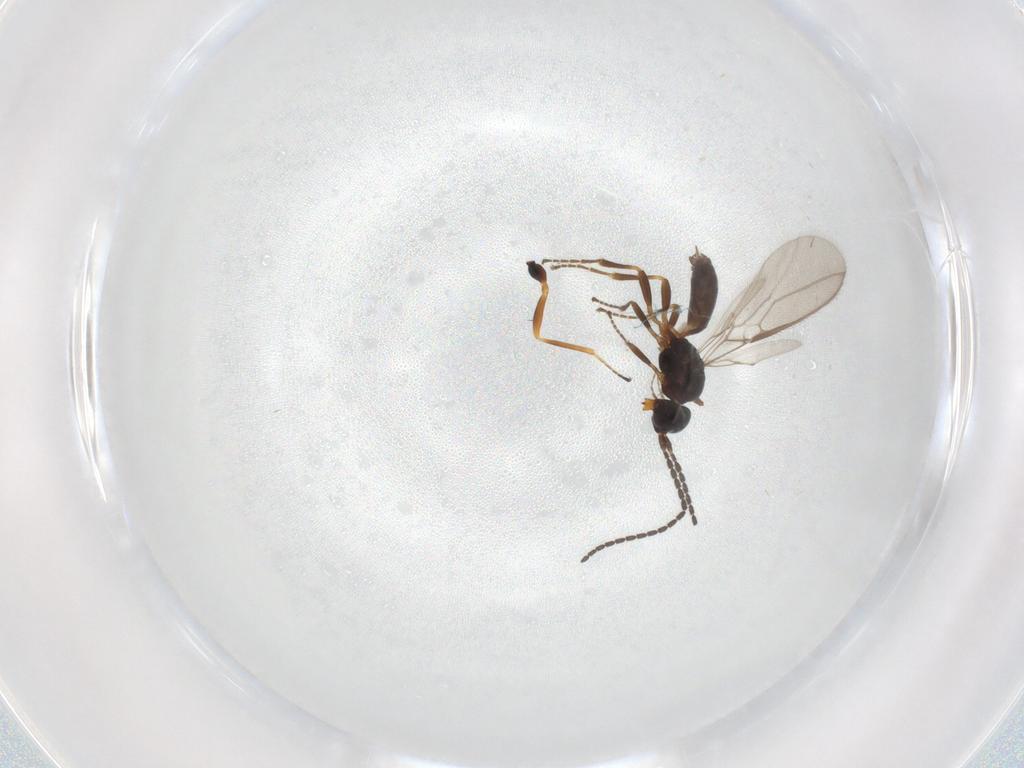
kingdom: Animalia
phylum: Arthropoda
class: Insecta
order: Hymenoptera
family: Braconidae
